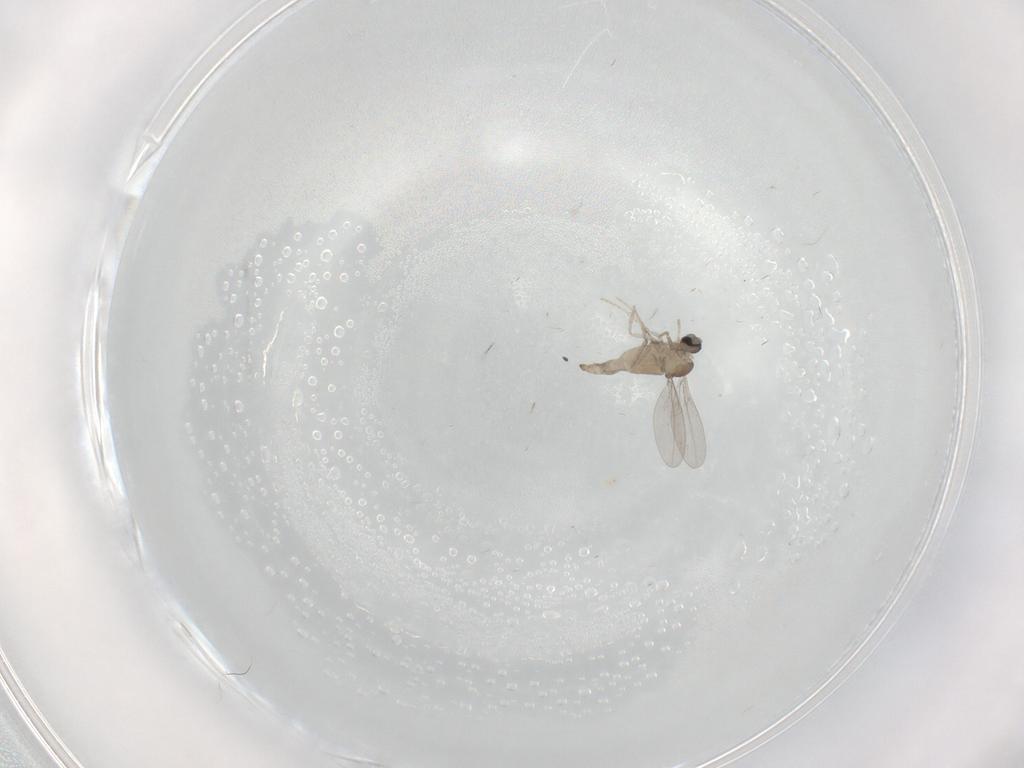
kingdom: Animalia
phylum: Arthropoda
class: Insecta
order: Diptera
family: Cecidomyiidae
